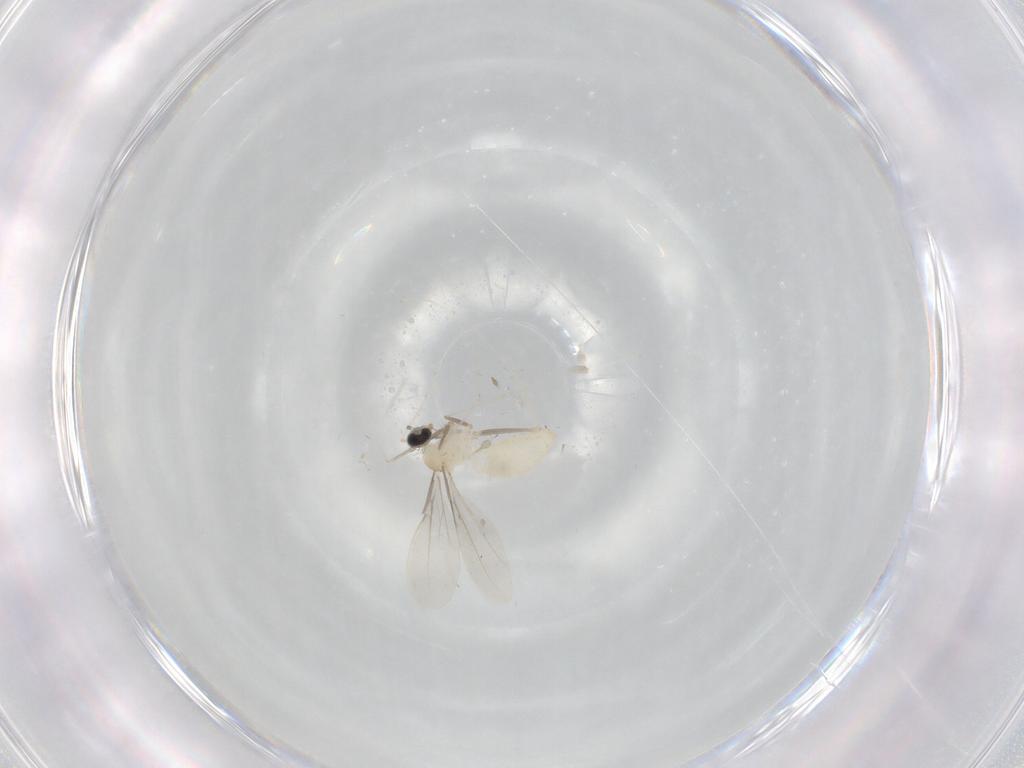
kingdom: Animalia
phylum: Arthropoda
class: Insecta
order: Diptera
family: Cecidomyiidae
